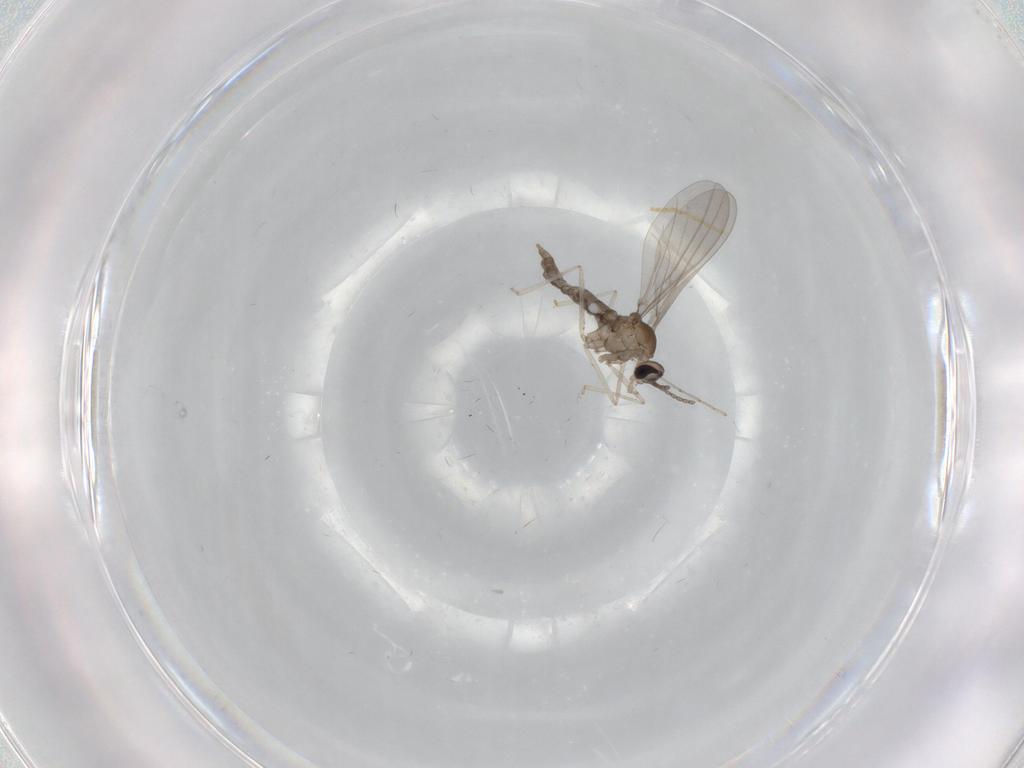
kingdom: Animalia
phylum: Arthropoda
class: Insecta
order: Diptera
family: Cecidomyiidae
